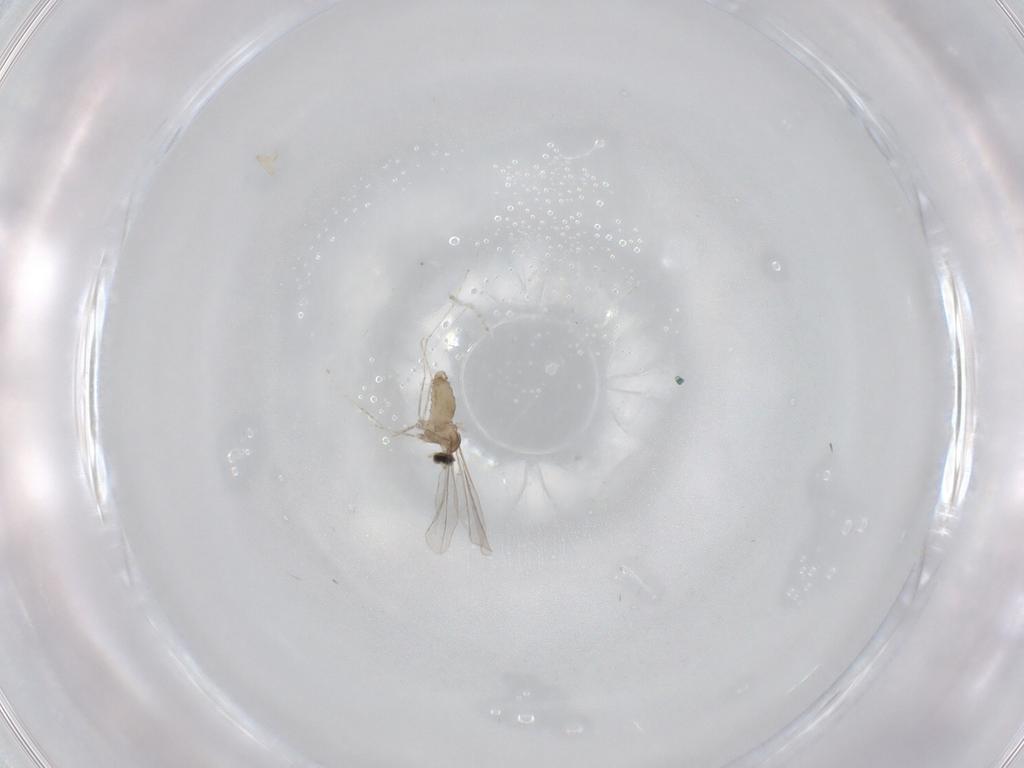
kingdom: Animalia
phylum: Arthropoda
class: Insecta
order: Diptera
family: Cecidomyiidae
